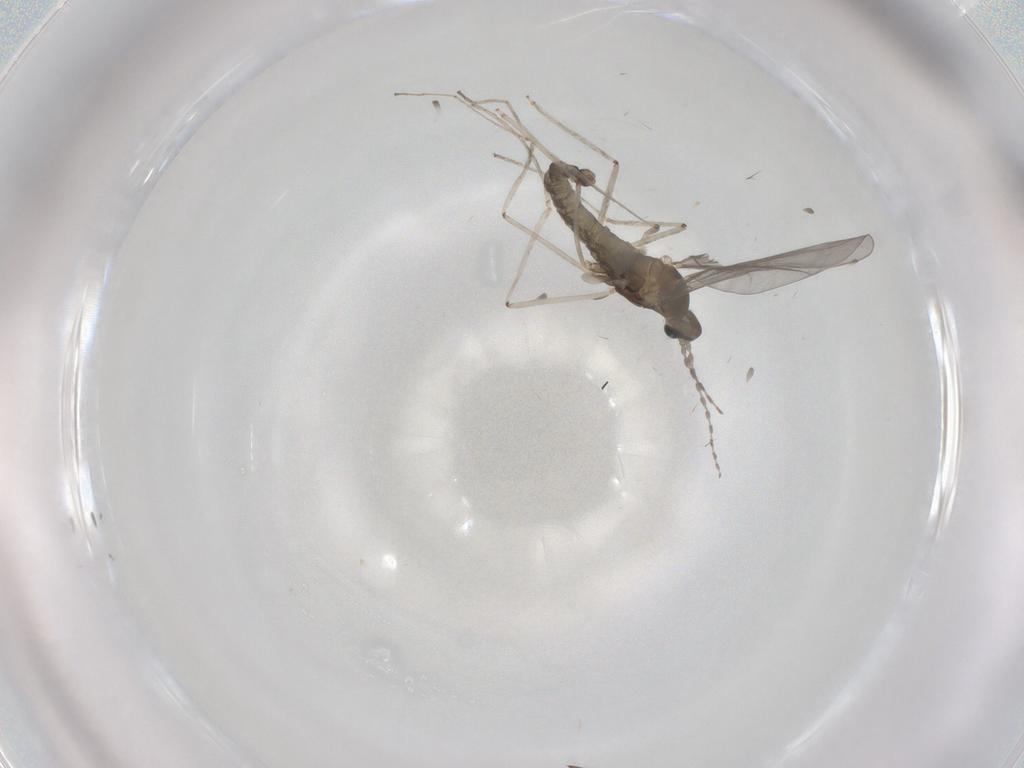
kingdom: Animalia
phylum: Arthropoda
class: Insecta
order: Diptera
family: Cecidomyiidae
